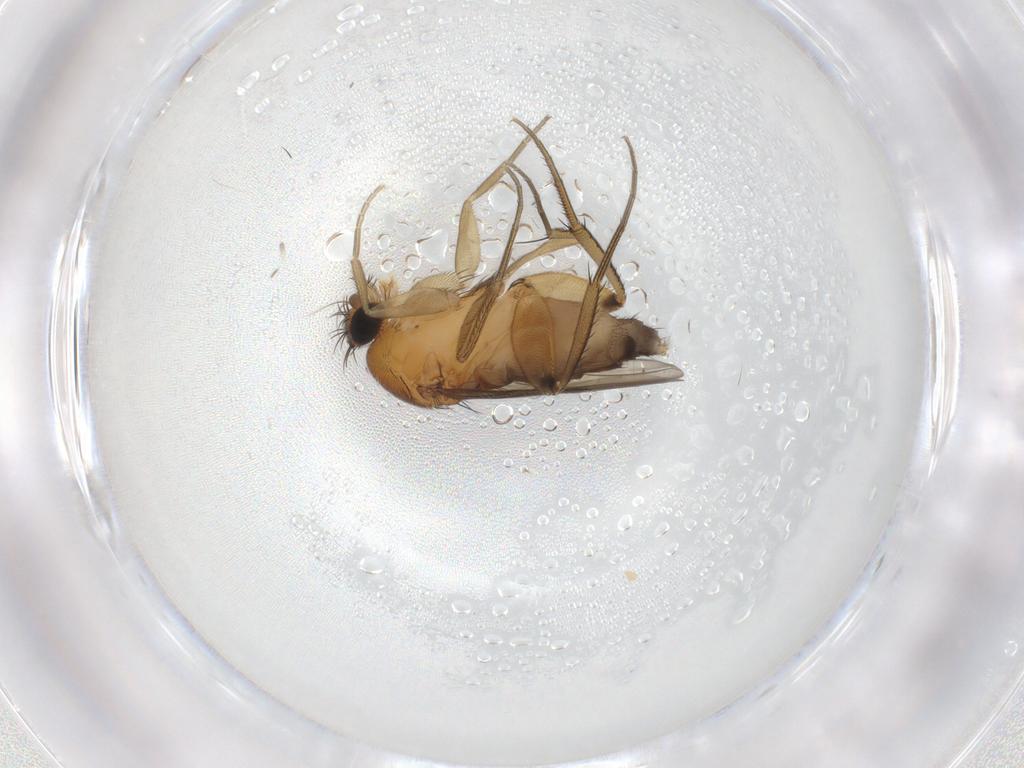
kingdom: Animalia
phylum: Arthropoda
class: Insecta
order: Diptera
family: Phoridae
